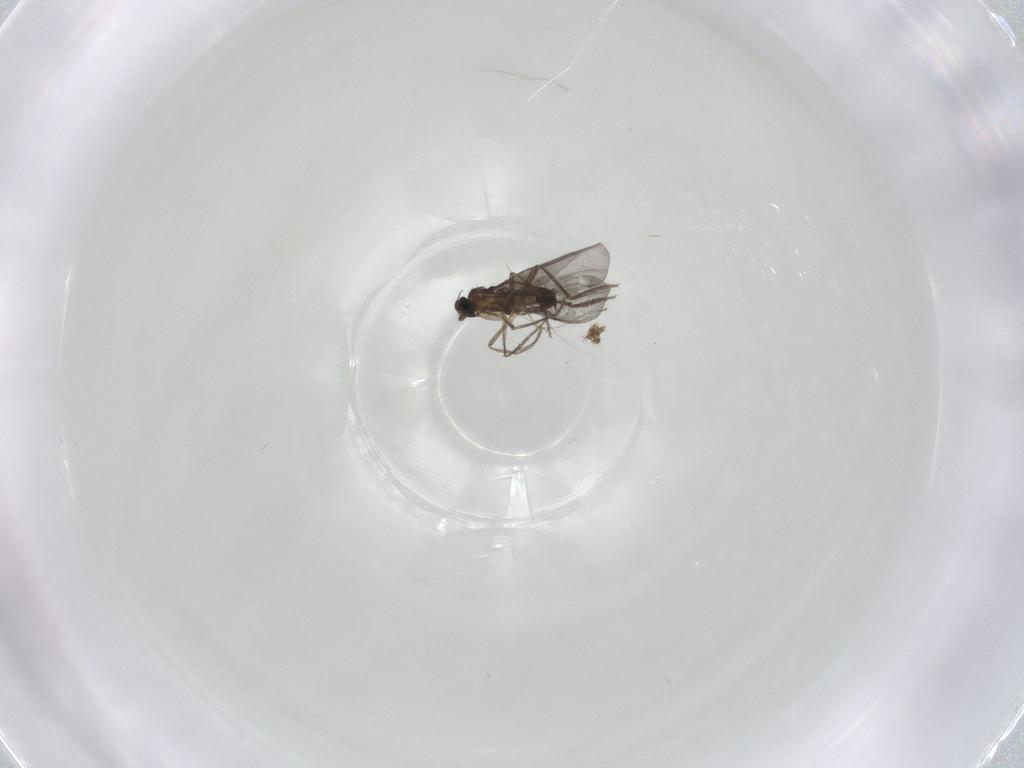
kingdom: Animalia
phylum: Arthropoda
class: Insecta
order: Diptera
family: Phoridae
